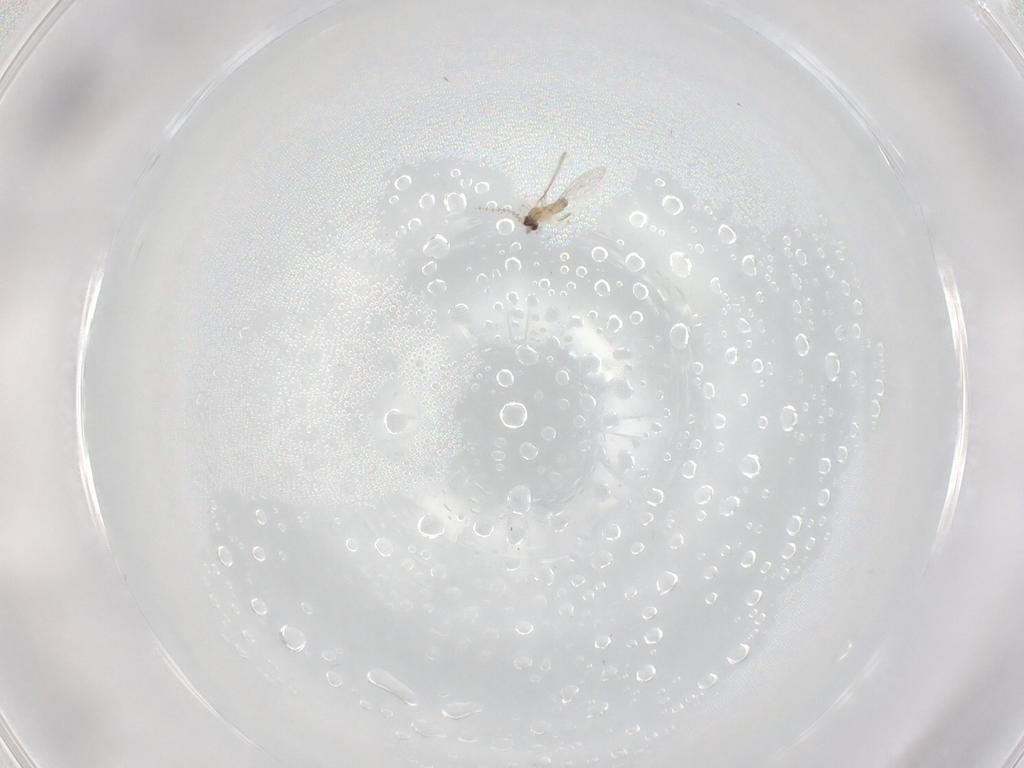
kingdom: Animalia
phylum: Arthropoda
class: Insecta
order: Diptera
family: Cecidomyiidae
